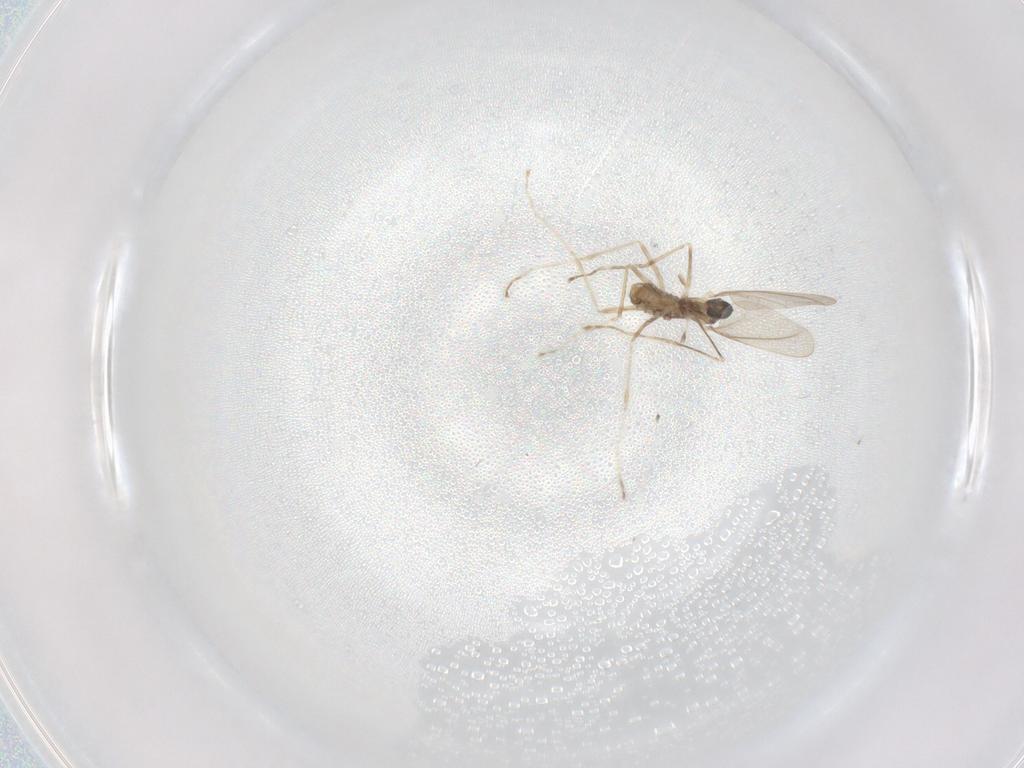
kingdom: Animalia
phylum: Arthropoda
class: Insecta
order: Diptera
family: Cecidomyiidae
